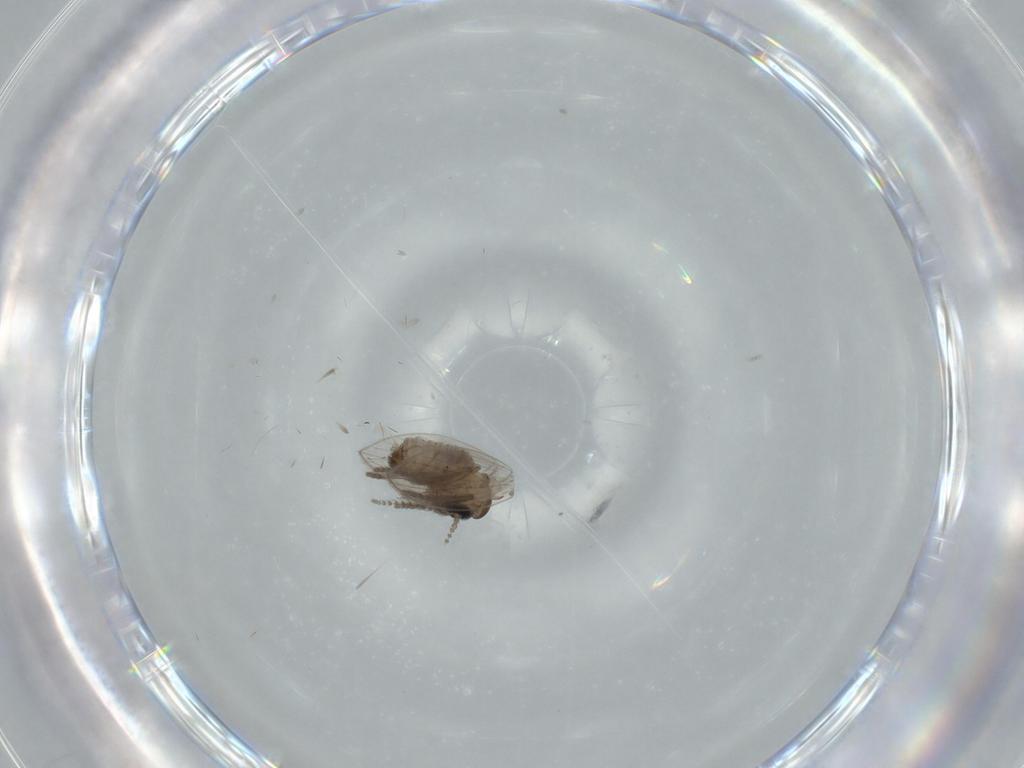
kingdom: Animalia
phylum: Arthropoda
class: Insecta
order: Diptera
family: Psychodidae
